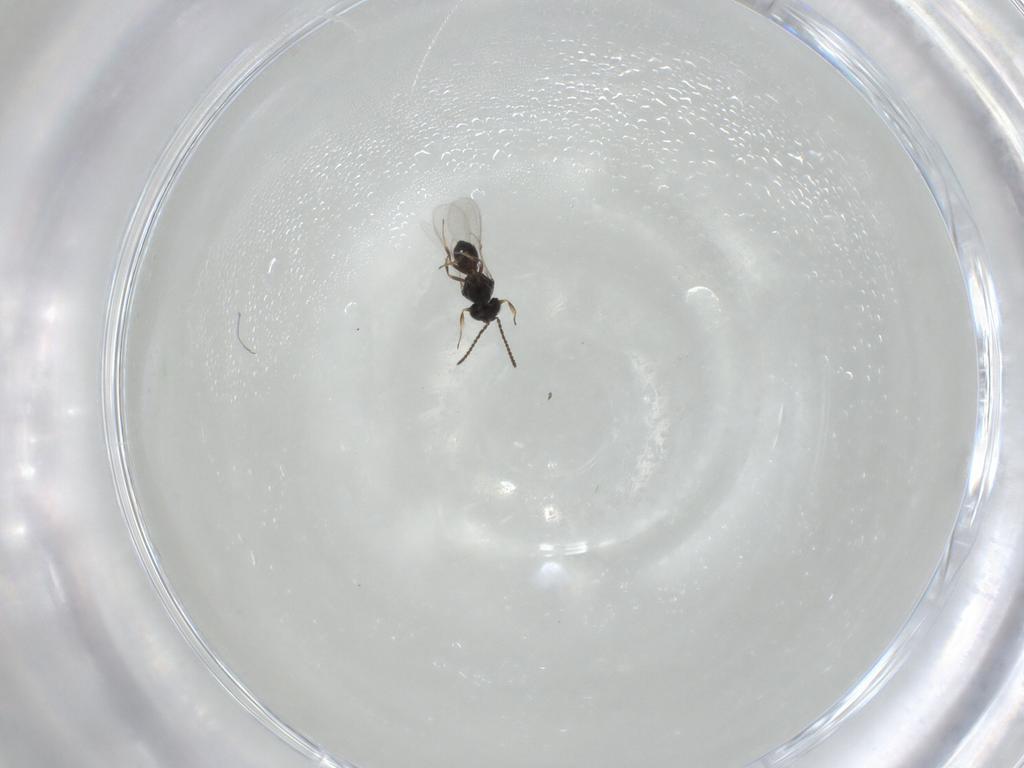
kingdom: Animalia
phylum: Arthropoda
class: Insecta
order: Hymenoptera
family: Scelionidae
